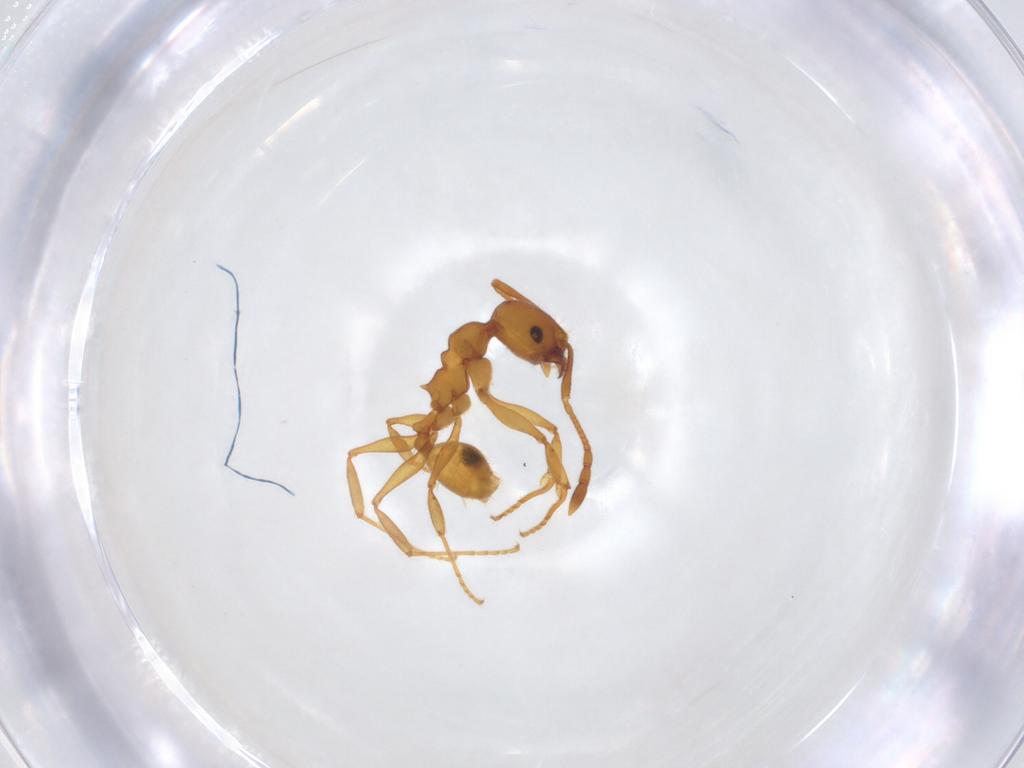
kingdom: Animalia
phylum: Arthropoda
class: Insecta
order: Hymenoptera
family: Formicidae
